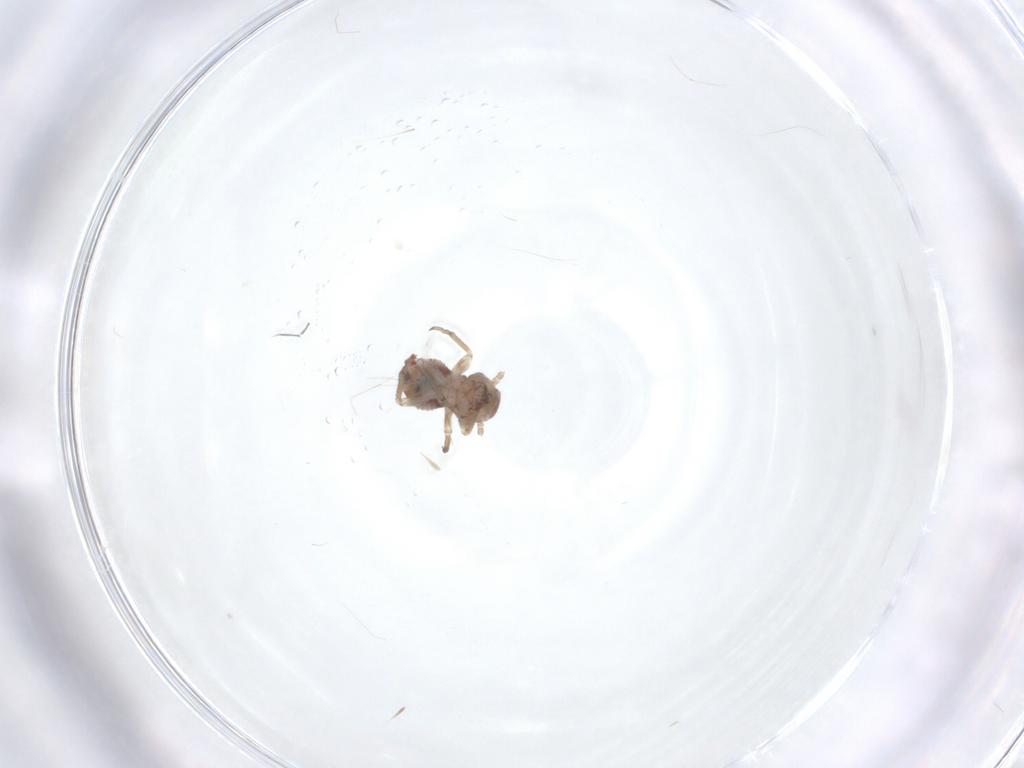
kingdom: Animalia
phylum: Arthropoda
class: Insecta
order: Psocodea
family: Psocidae
